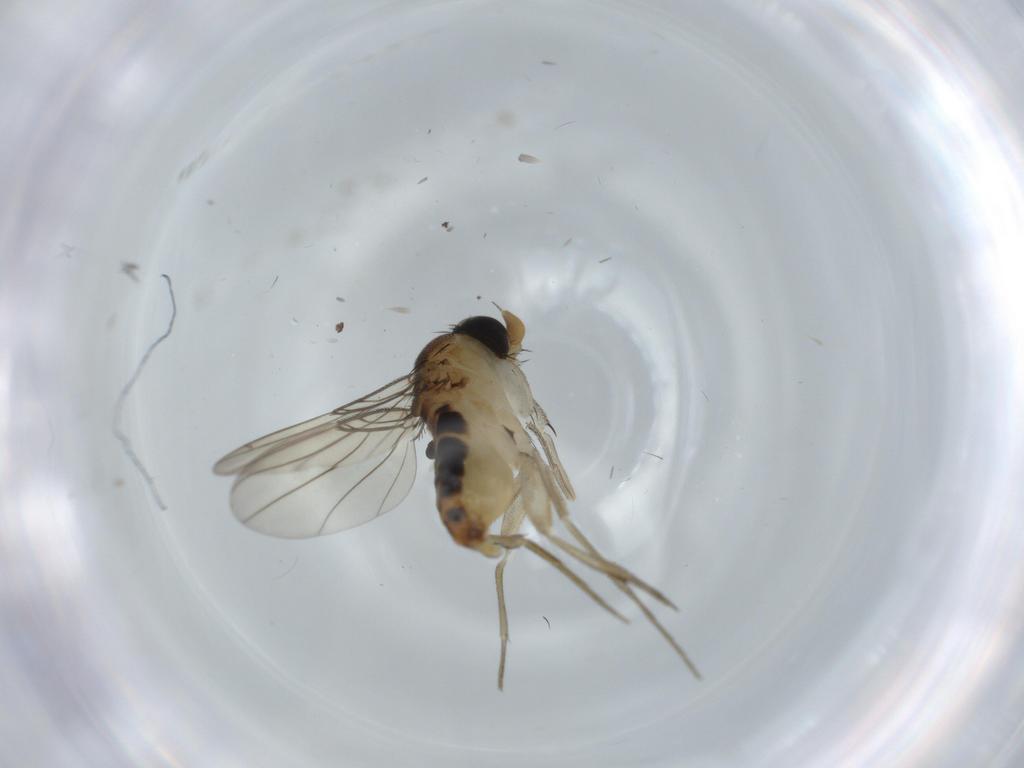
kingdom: Animalia
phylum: Arthropoda
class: Insecta
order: Diptera
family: Phoridae
